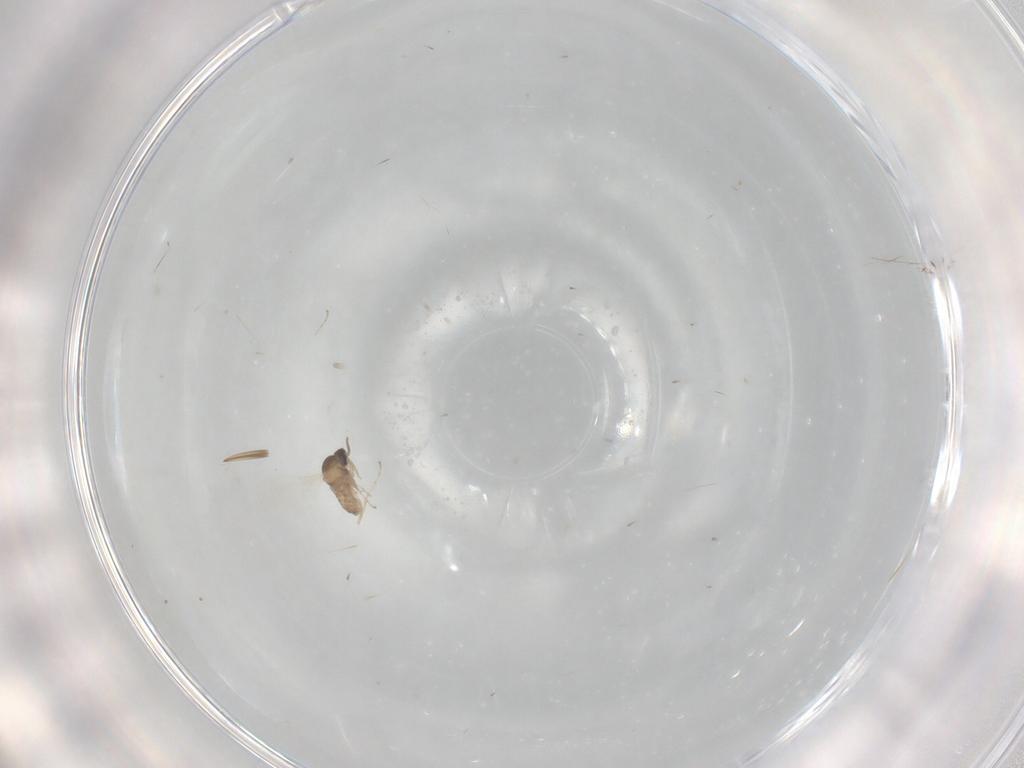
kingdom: Animalia
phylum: Arthropoda
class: Insecta
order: Diptera
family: Cecidomyiidae
